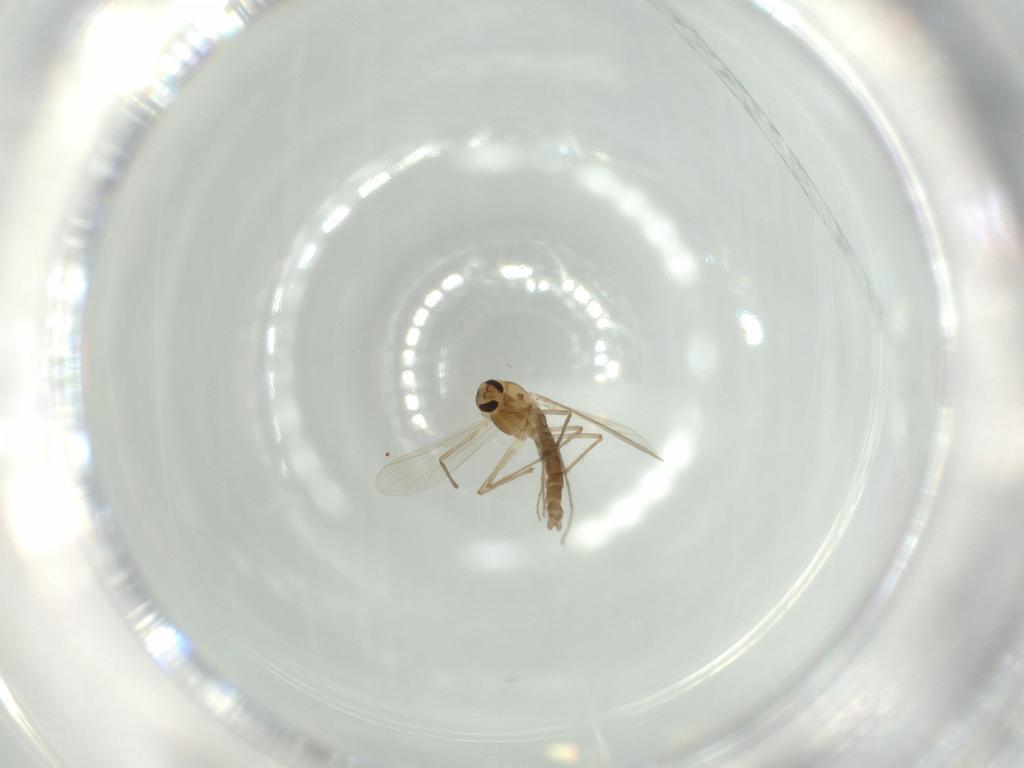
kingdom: Animalia
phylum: Arthropoda
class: Insecta
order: Diptera
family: Chironomidae
